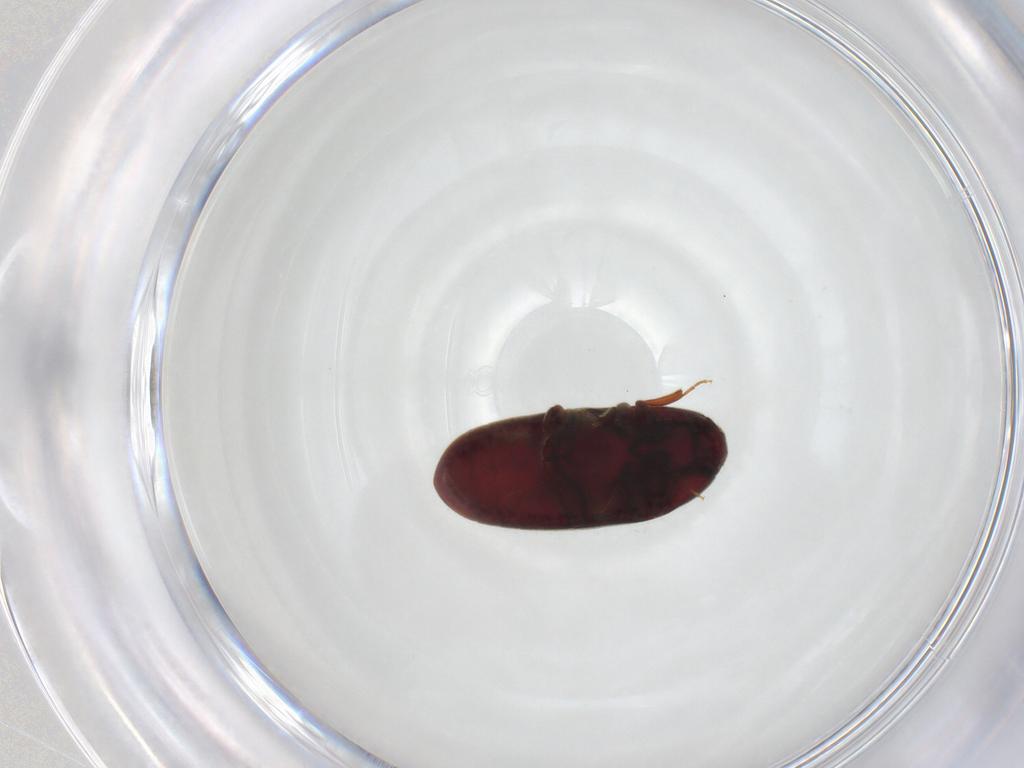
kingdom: Animalia
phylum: Arthropoda
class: Insecta
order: Coleoptera
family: Throscidae
